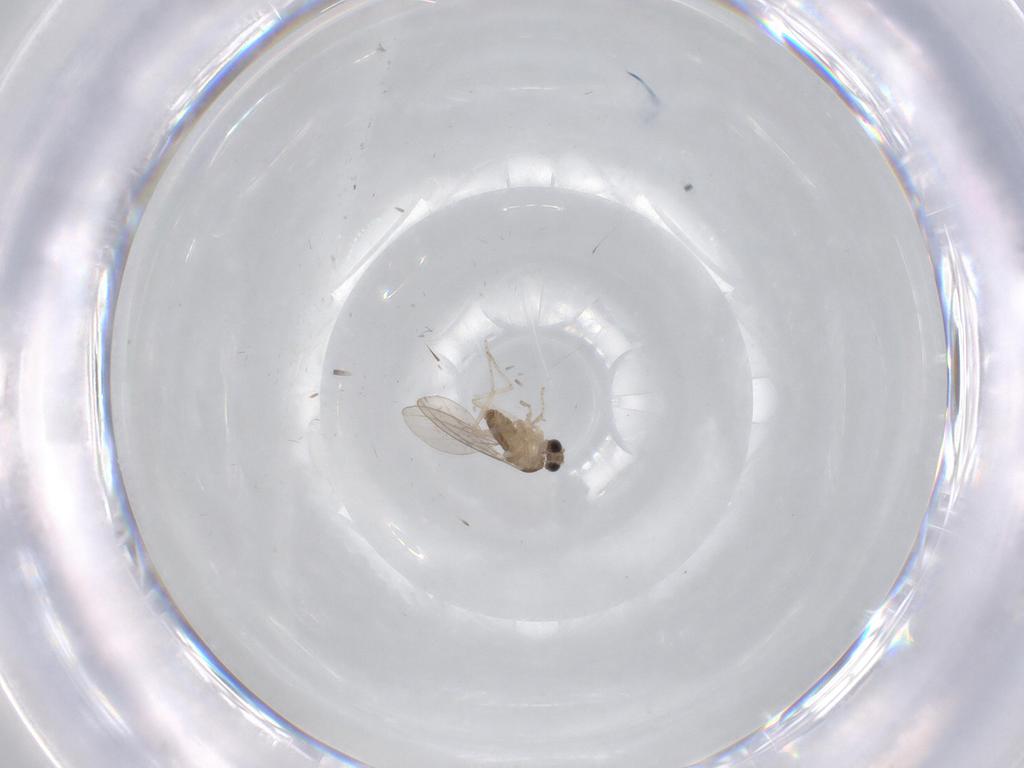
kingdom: Animalia
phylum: Arthropoda
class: Insecta
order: Diptera
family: Cecidomyiidae
